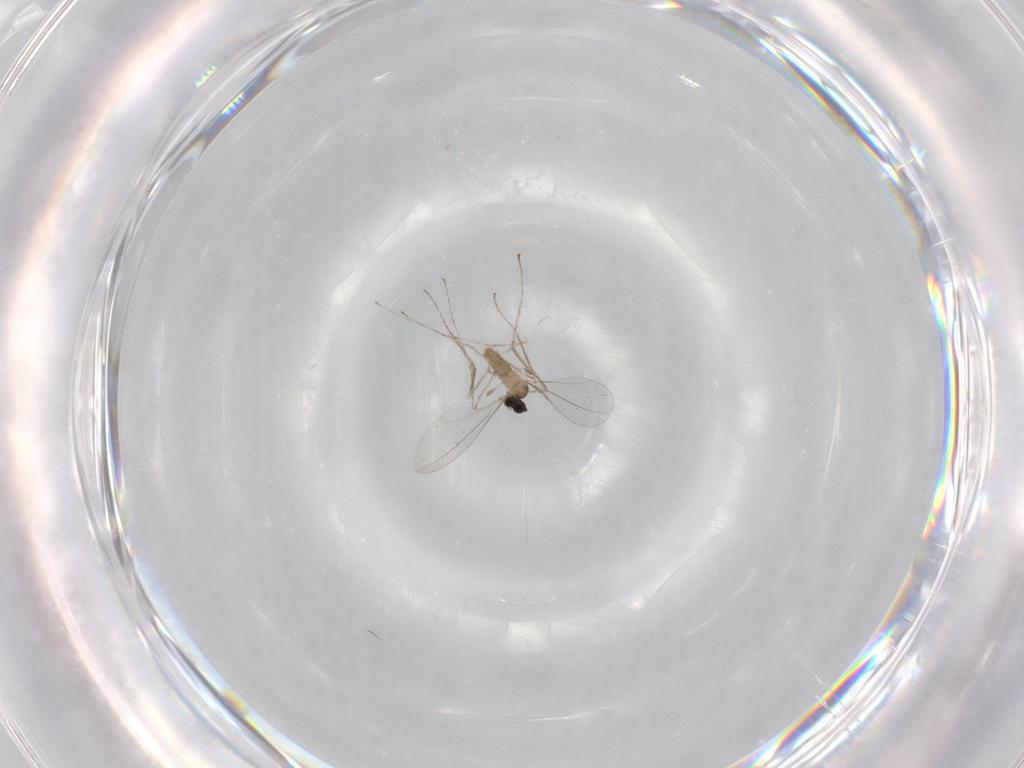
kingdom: Animalia
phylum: Arthropoda
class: Insecta
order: Diptera
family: Cecidomyiidae
